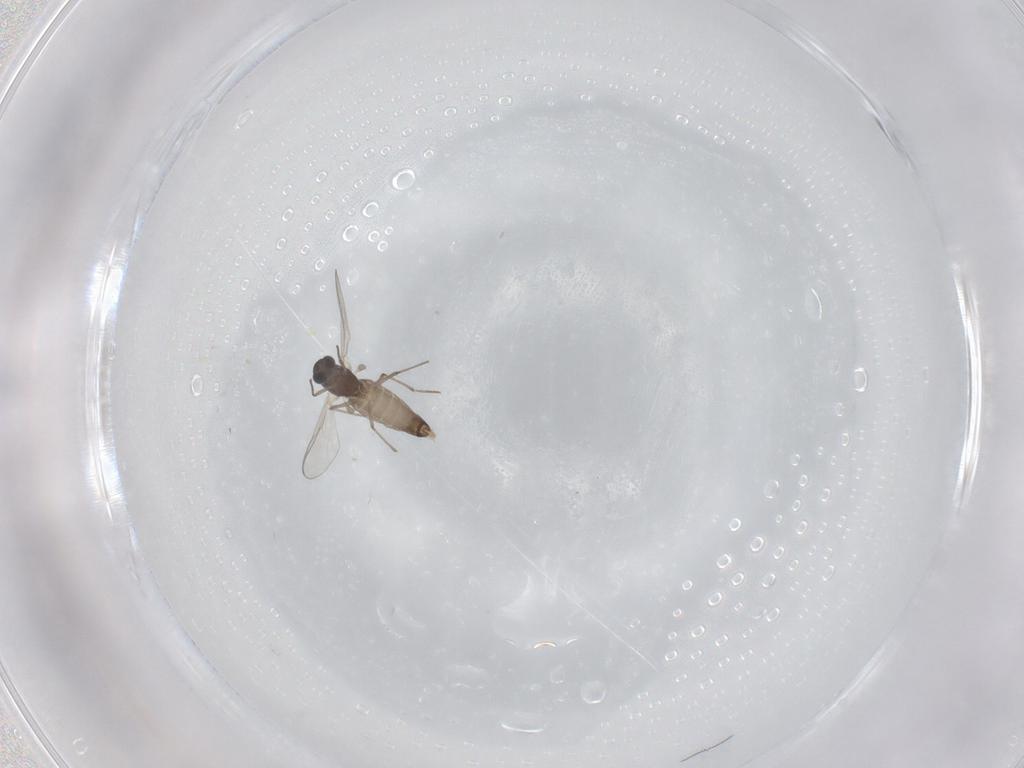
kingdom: Animalia
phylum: Arthropoda
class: Insecta
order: Diptera
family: Chironomidae
